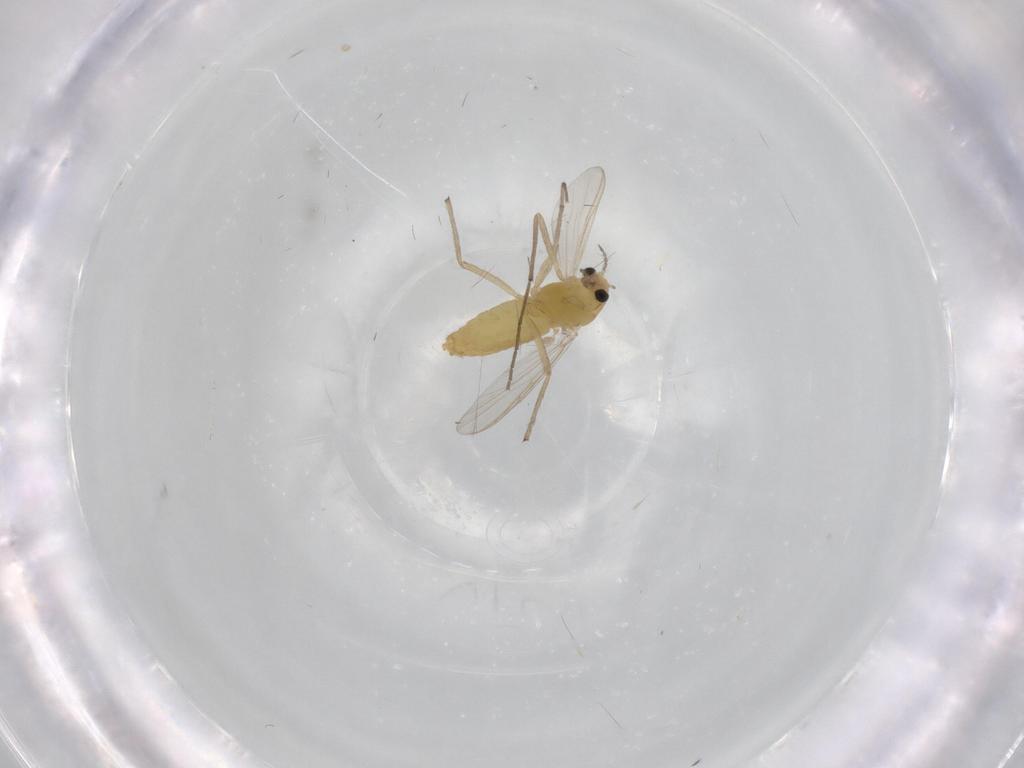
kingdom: Animalia
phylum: Arthropoda
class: Insecta
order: Diptera
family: Chironomidae
